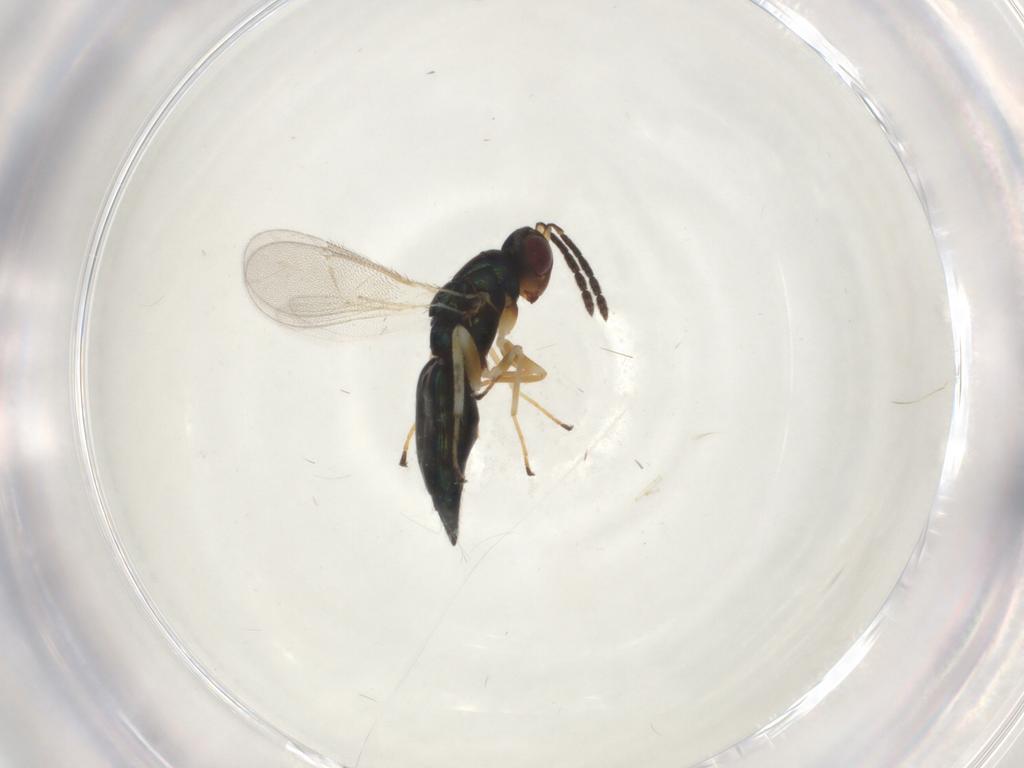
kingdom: Animalia
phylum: Arthropoda
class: Insecta
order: Hymenoptera
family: Eulophidae
